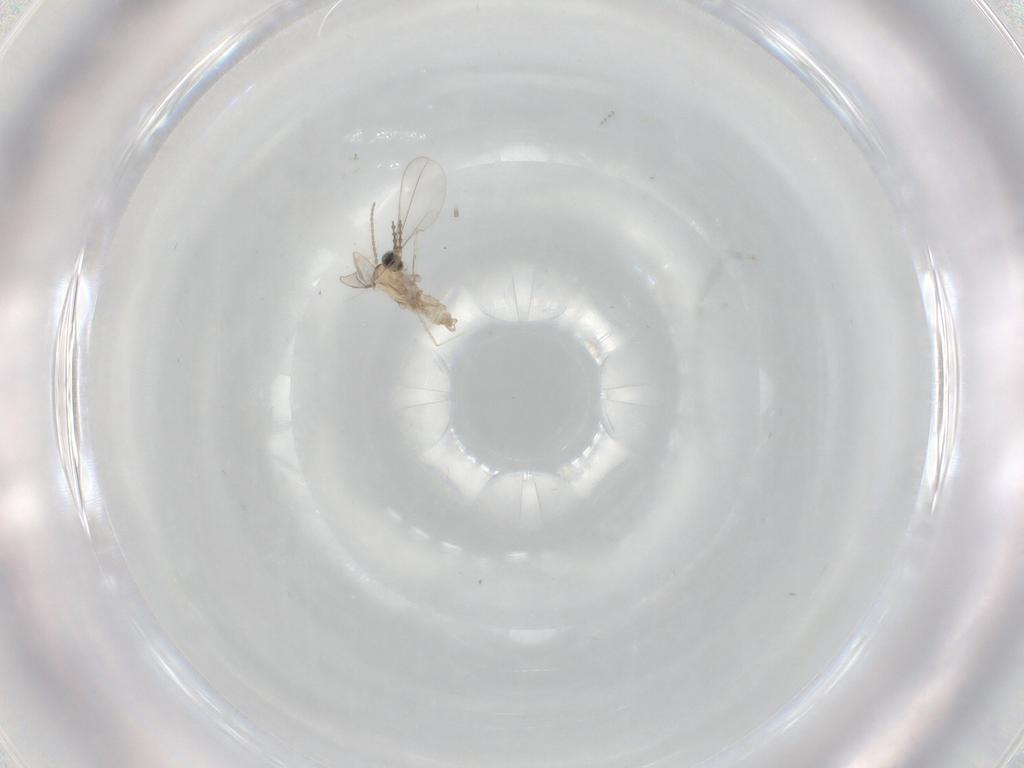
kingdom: Animalia
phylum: Arthropoda
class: Insecta
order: Diptera
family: Cecidomyiidae
